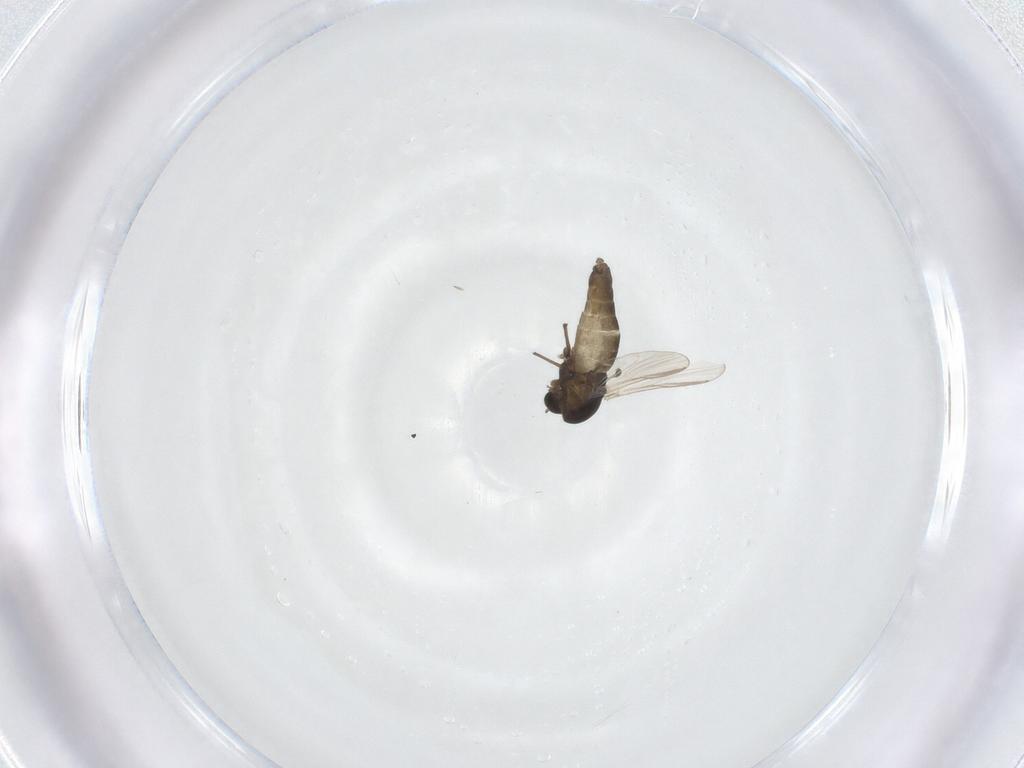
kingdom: Animalia
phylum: Arthropoda
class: Insecta
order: Diptera
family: Chironomidae
